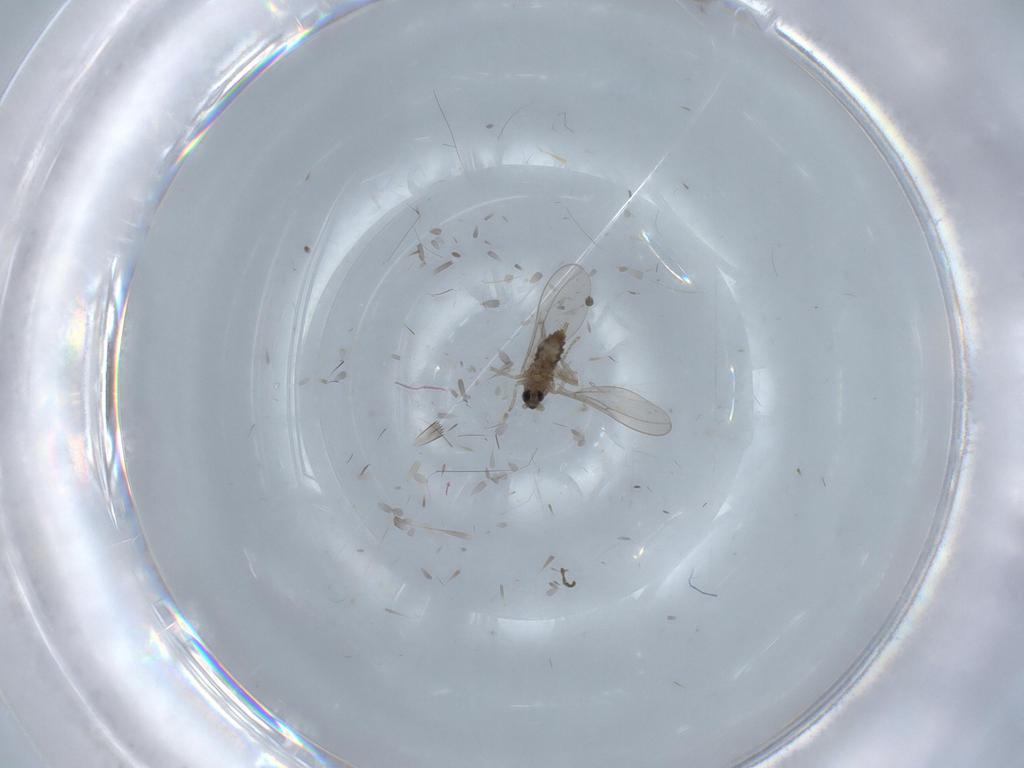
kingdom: Animalia
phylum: Arthropoda
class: Insecta
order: Diptera
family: Cecidomyiidae
